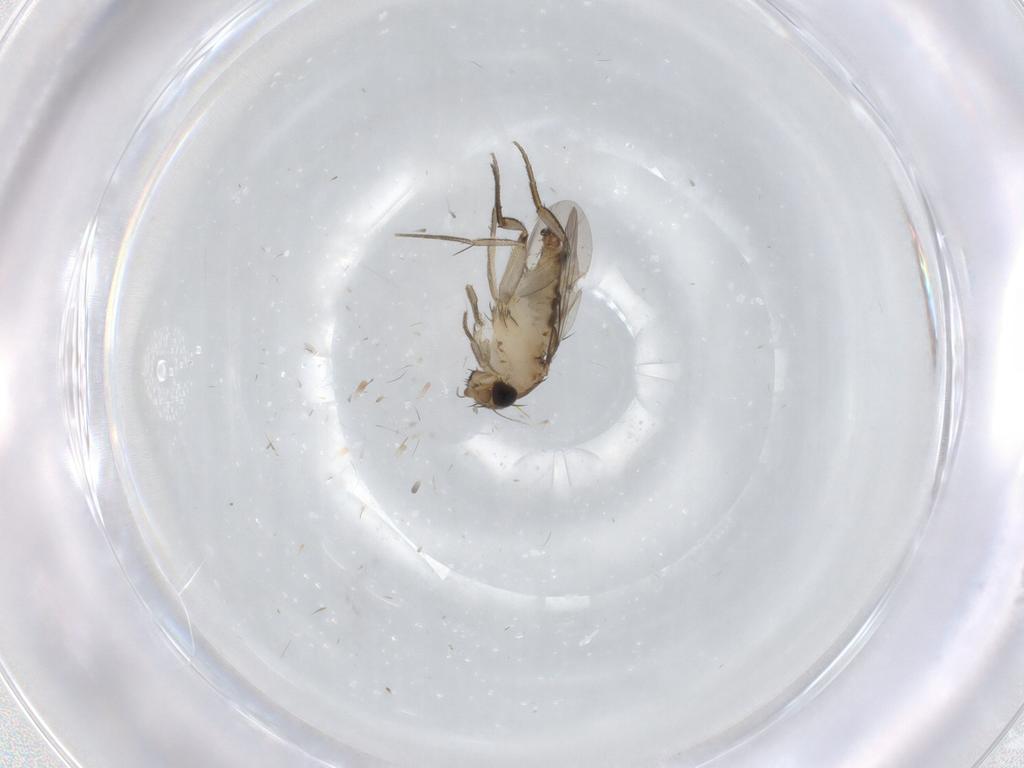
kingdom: Animalia
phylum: Arthropoda
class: Insecta
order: Diptera
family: Phoridae
